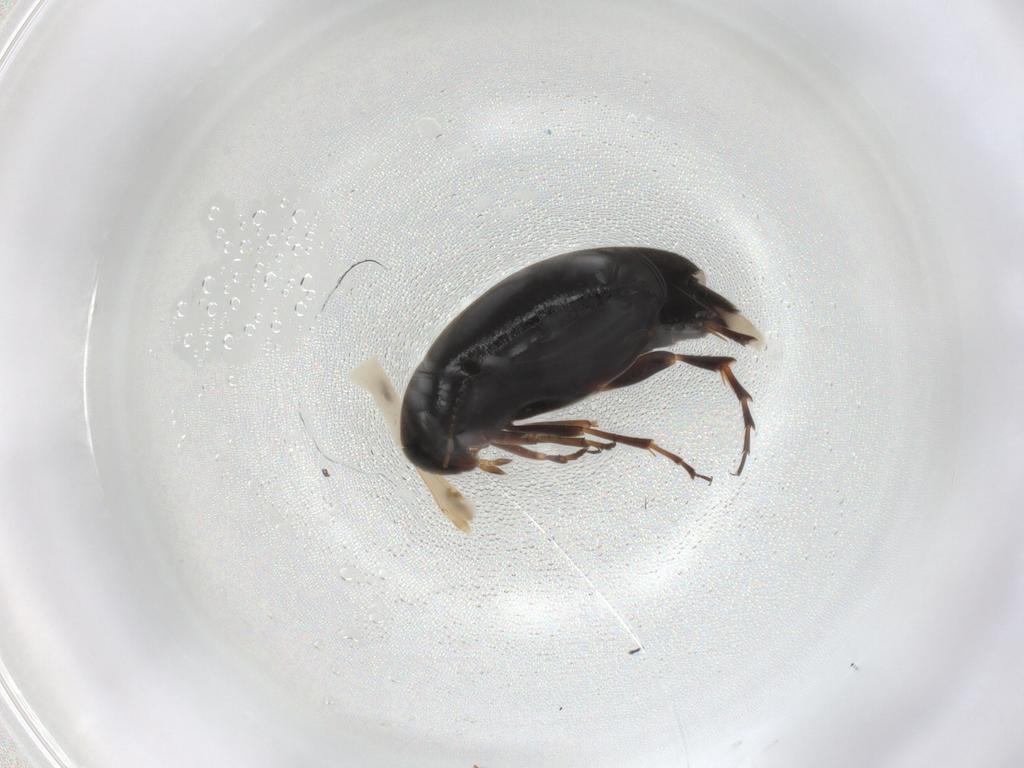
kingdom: Animalia
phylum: Arthropoda
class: Insecta
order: Coleoptera
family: Scraptiidae
